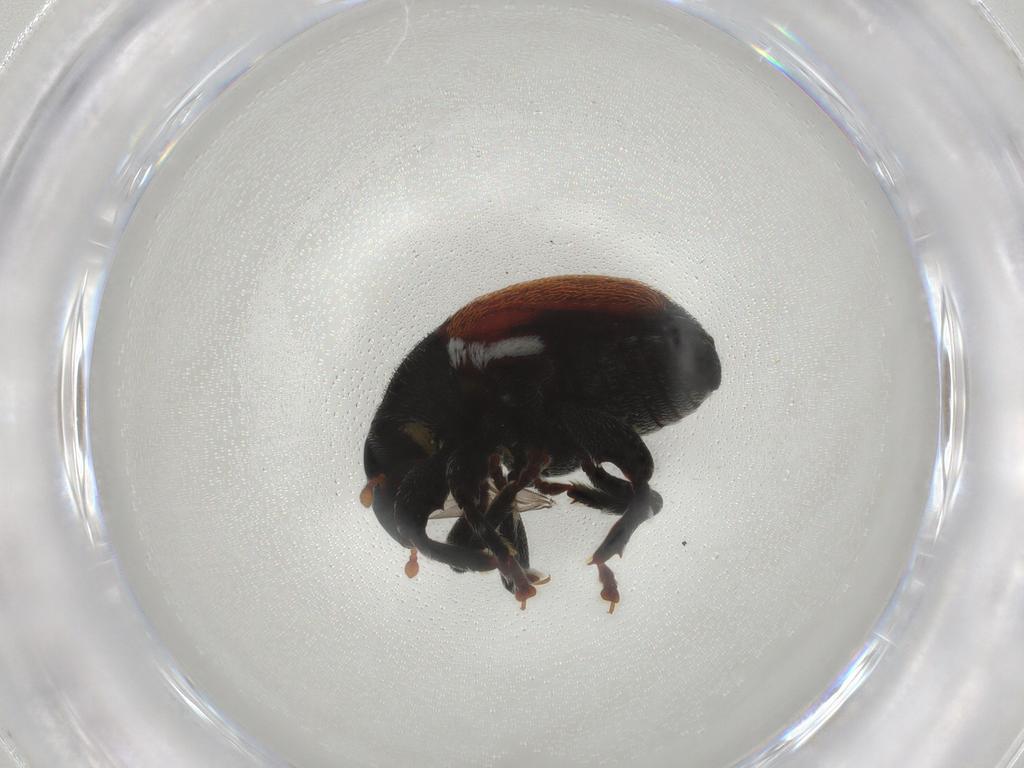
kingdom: Animalia
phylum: Arthropoda
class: Insecta
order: Coleoptera
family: Curculionidae
